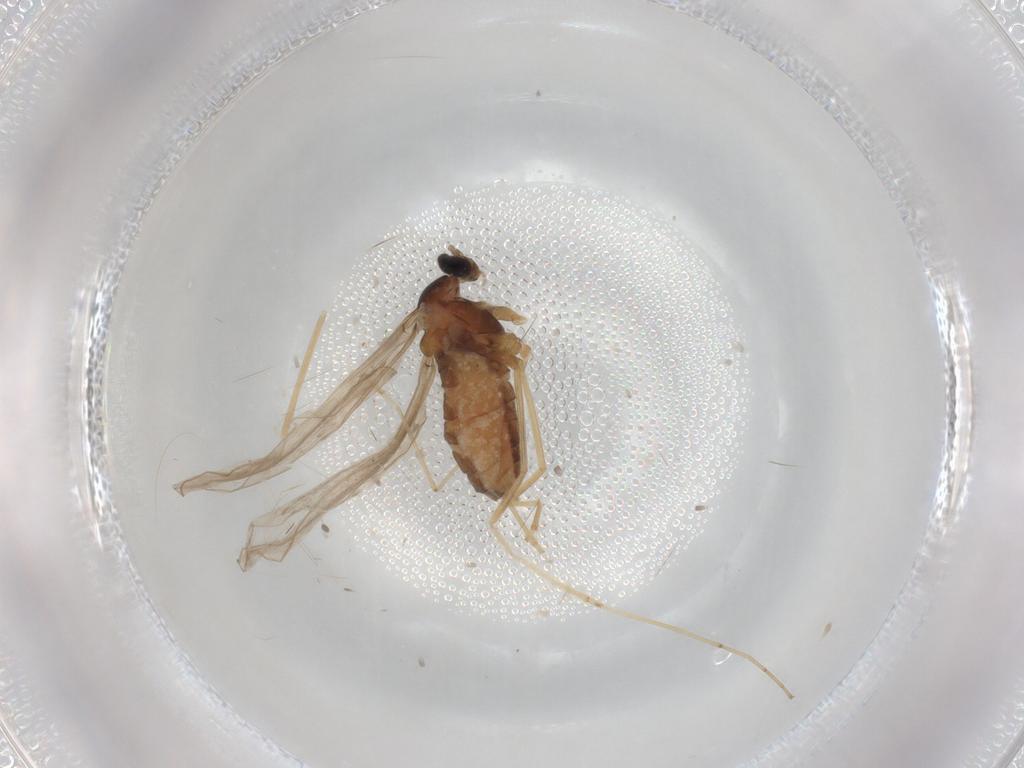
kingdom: Animalia
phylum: Arthropoda
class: Insecta
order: Diptera
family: Cecidomyiidae
